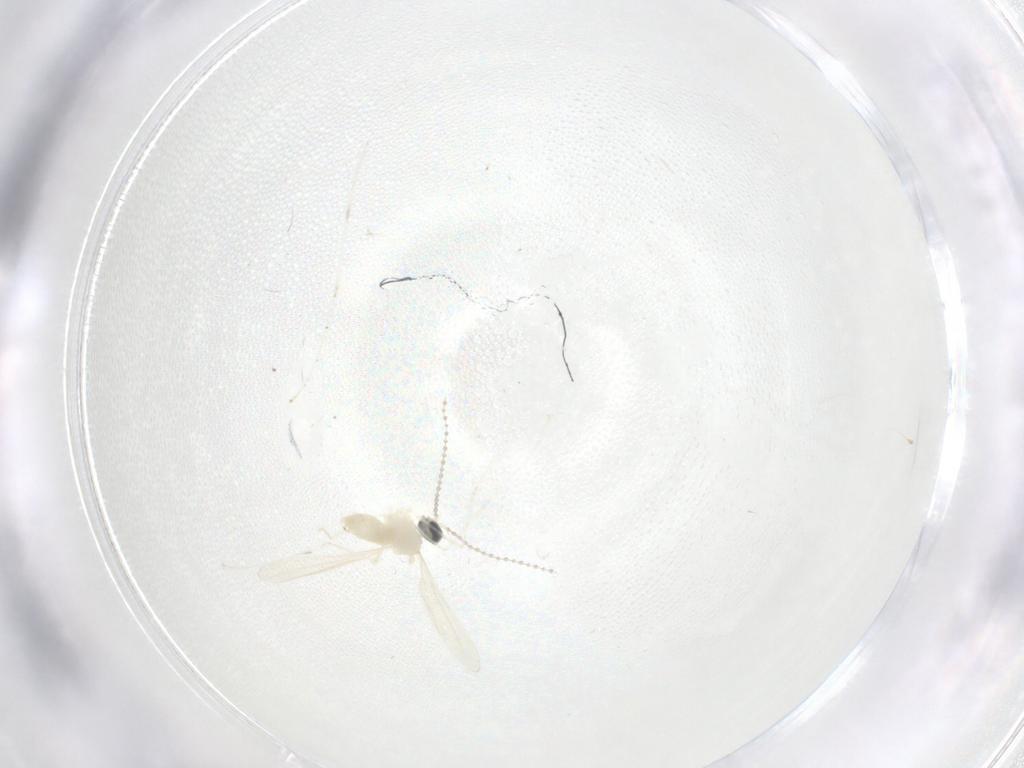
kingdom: Animalia
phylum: Arthropoda
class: Insecta
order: Diptera
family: Cecidomyiidae
